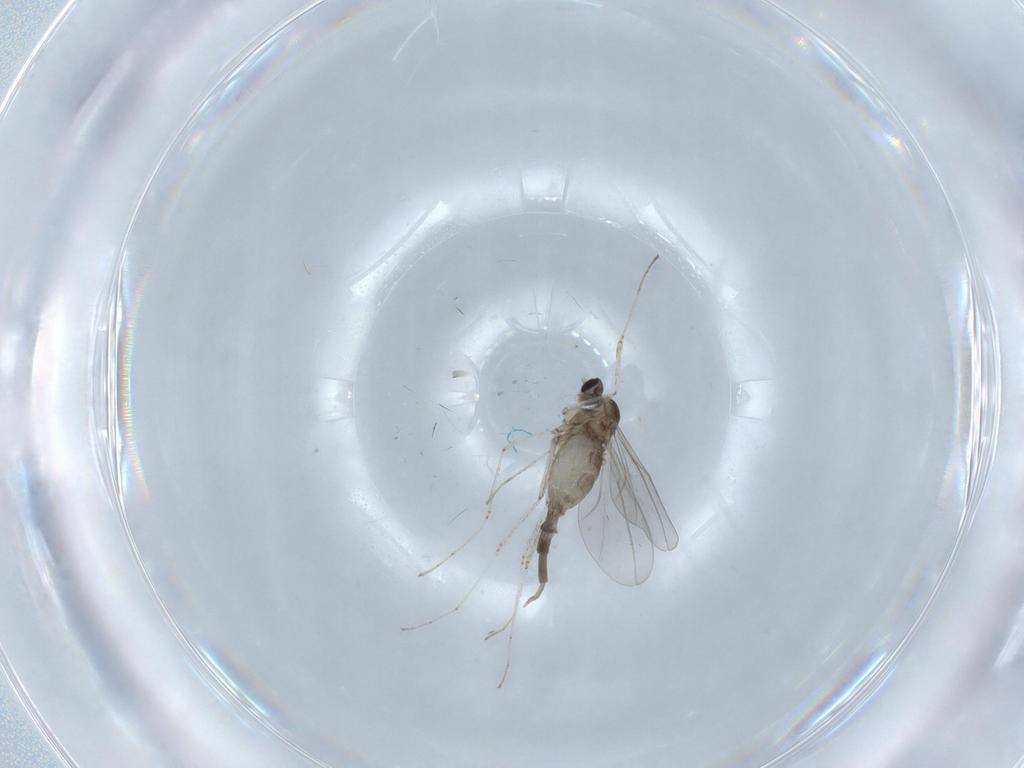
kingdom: Animalia
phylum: Arthropoda
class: Insecta
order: Diptera
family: Cecidomyiidae
